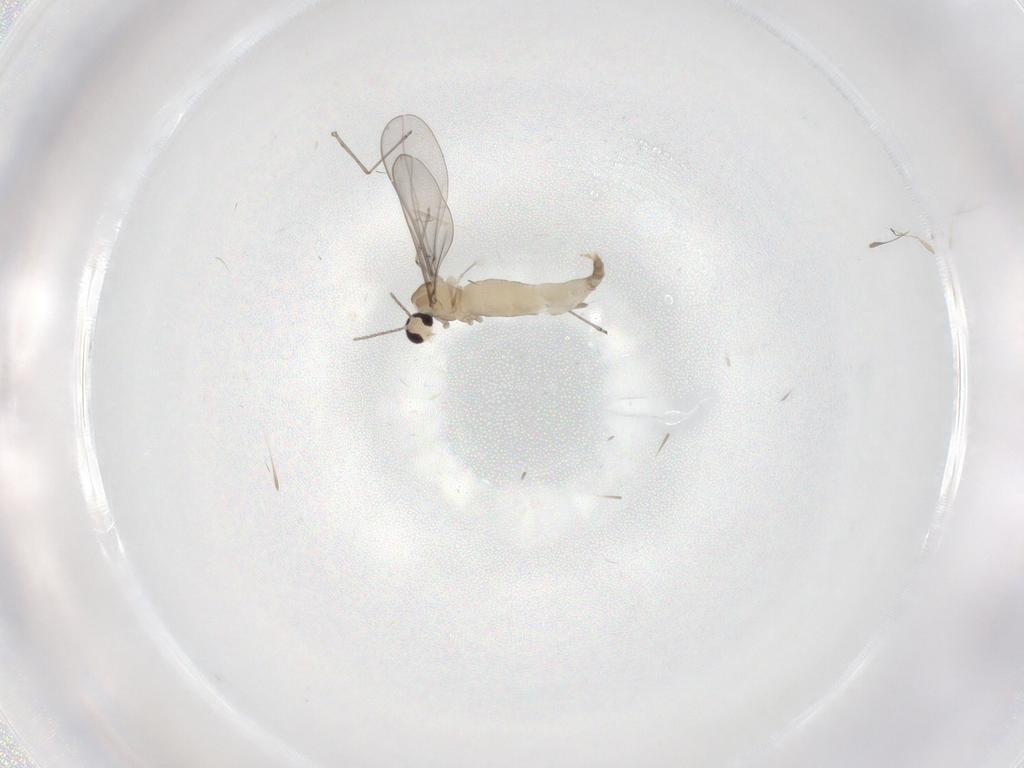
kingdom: Animalia
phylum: Arthropoda
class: Insecta
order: Diptera
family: Cecidomyiidae
